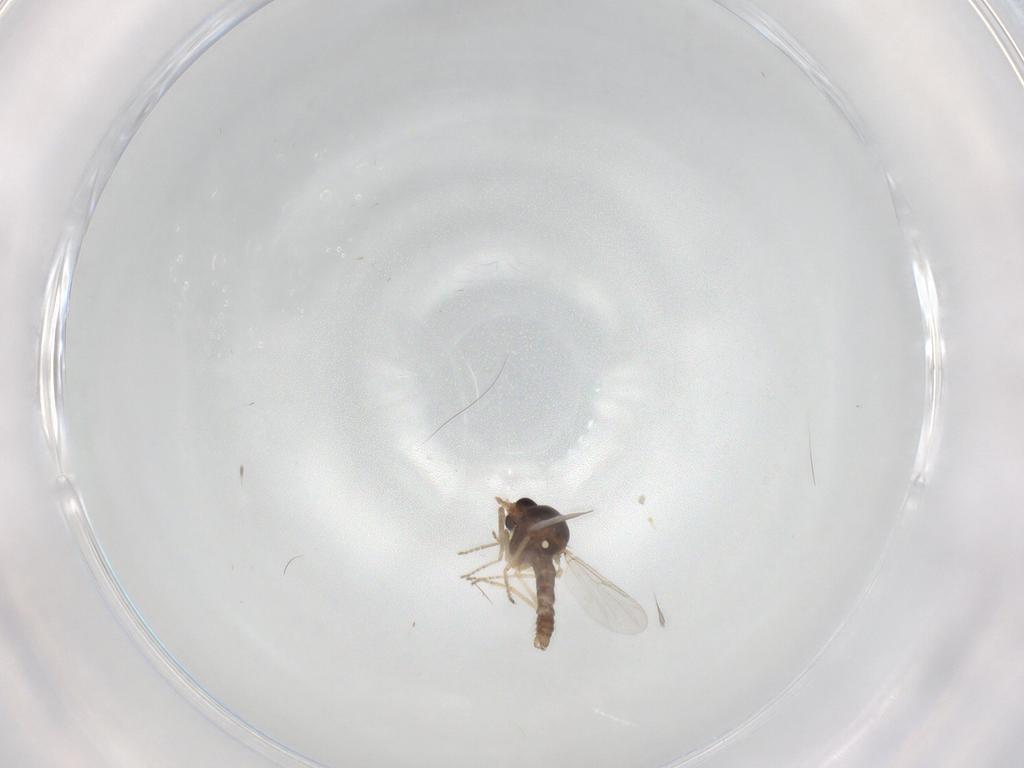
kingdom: Animalia
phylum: Arthropoda
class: Insecta
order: Diptera
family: Ceratopogonidae
